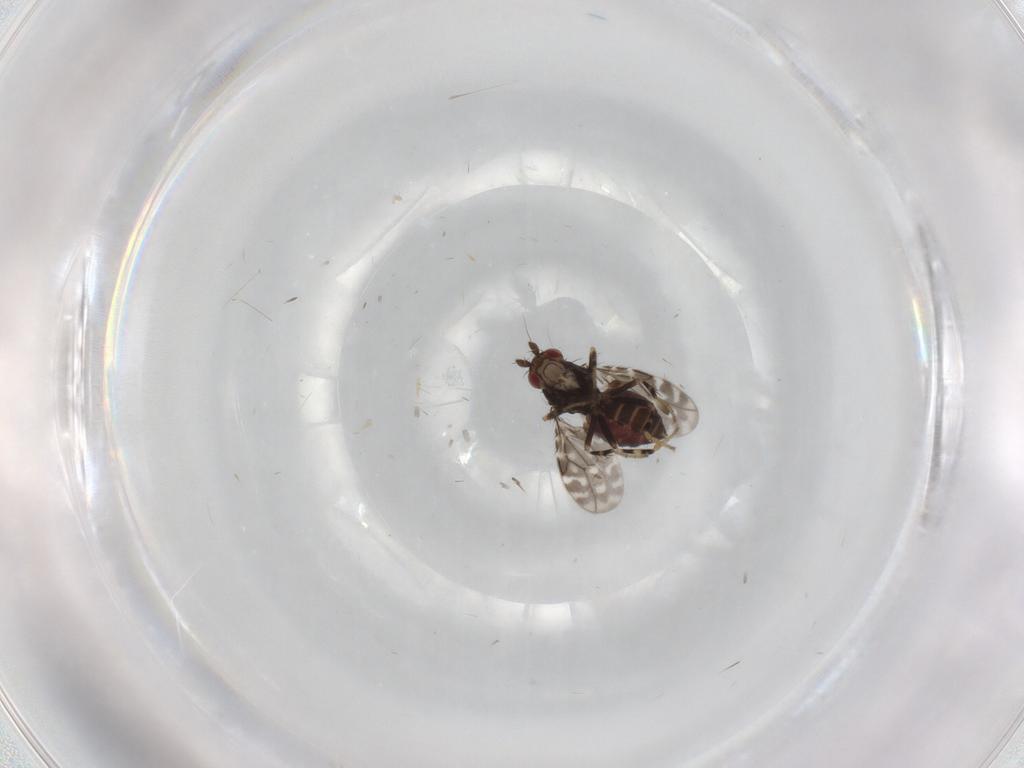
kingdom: Animalia
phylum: Arthropoda
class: Insecta
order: Diptera
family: Sphaeroceridae
